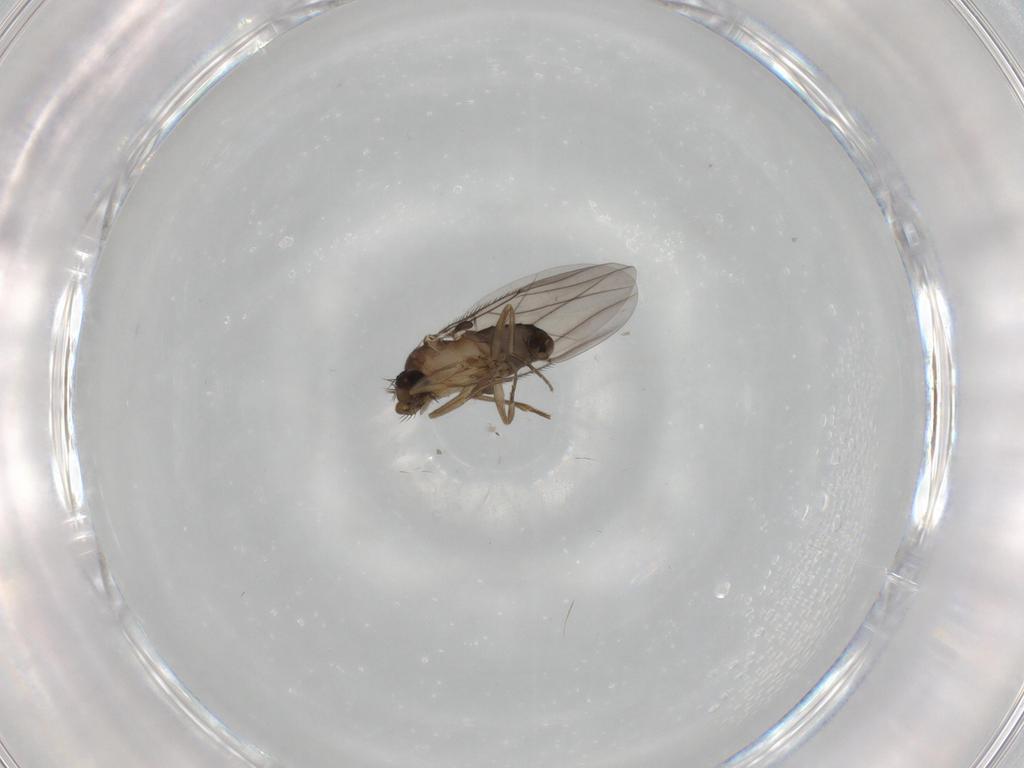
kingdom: Animalia
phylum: Arthropoda
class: Insecta
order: Diptera
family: Phoridae
